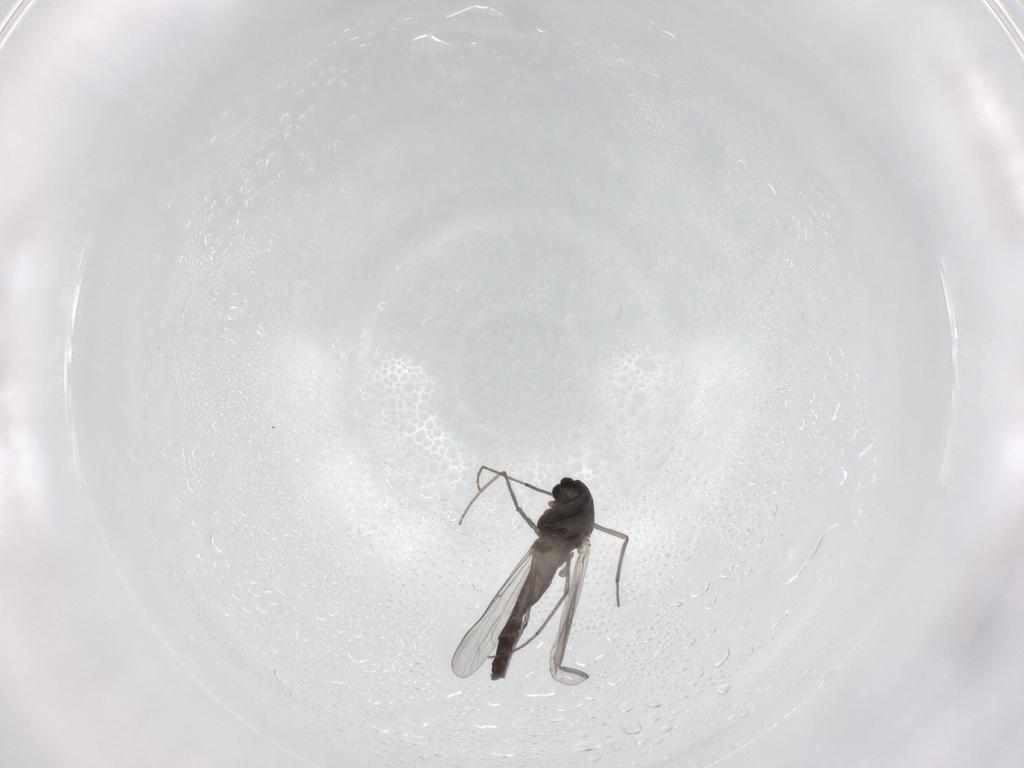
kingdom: Animalia
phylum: Arthropoda
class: Insecta
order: Diptera
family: Chironomidae
